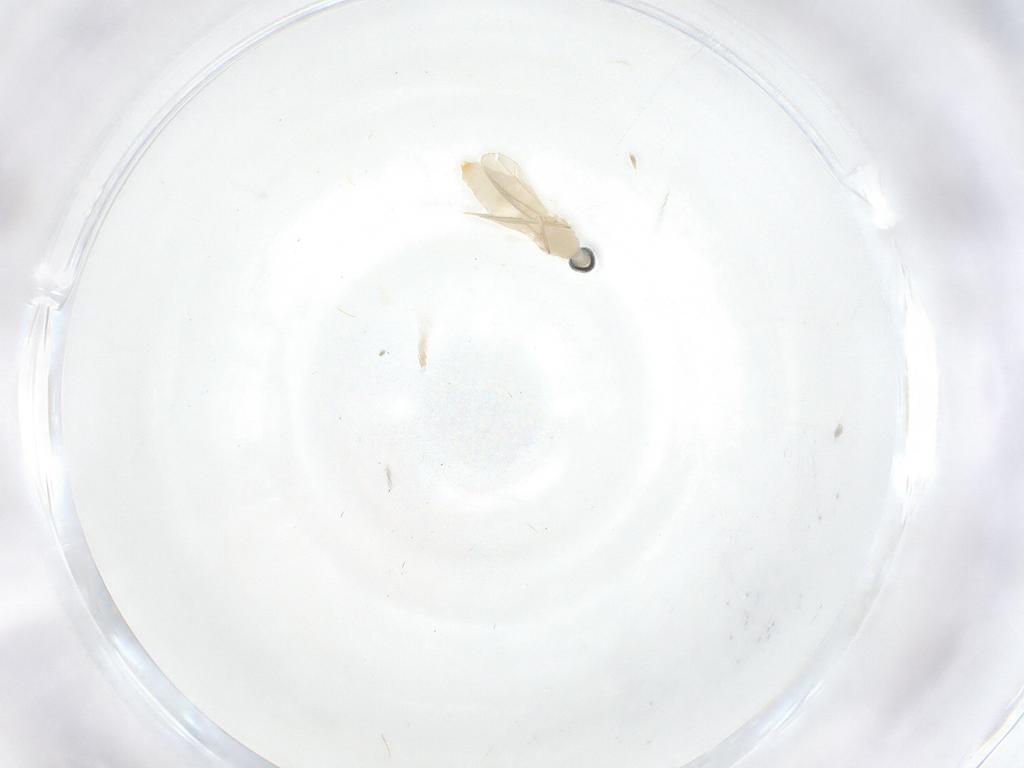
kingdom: Animalia
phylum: Arthropoda
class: Insecta
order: Diptera
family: Cecidomyiidae
